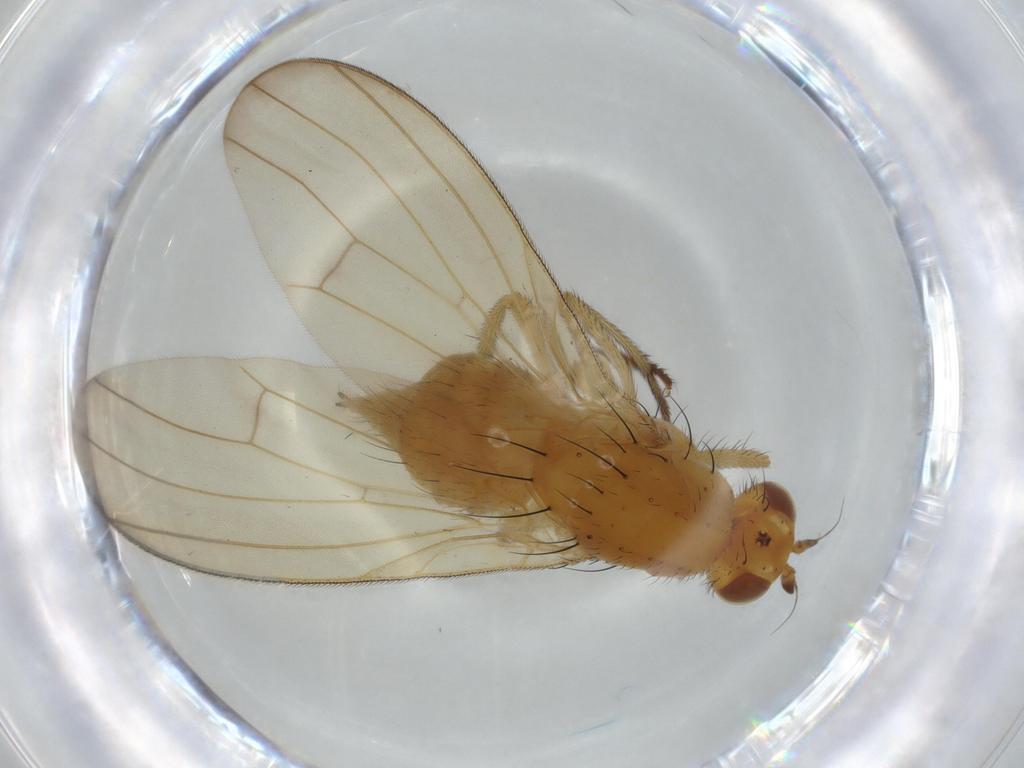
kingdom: Animalia
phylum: Arthropoda
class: Insecta
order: Diptera
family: Lauxaniidae
